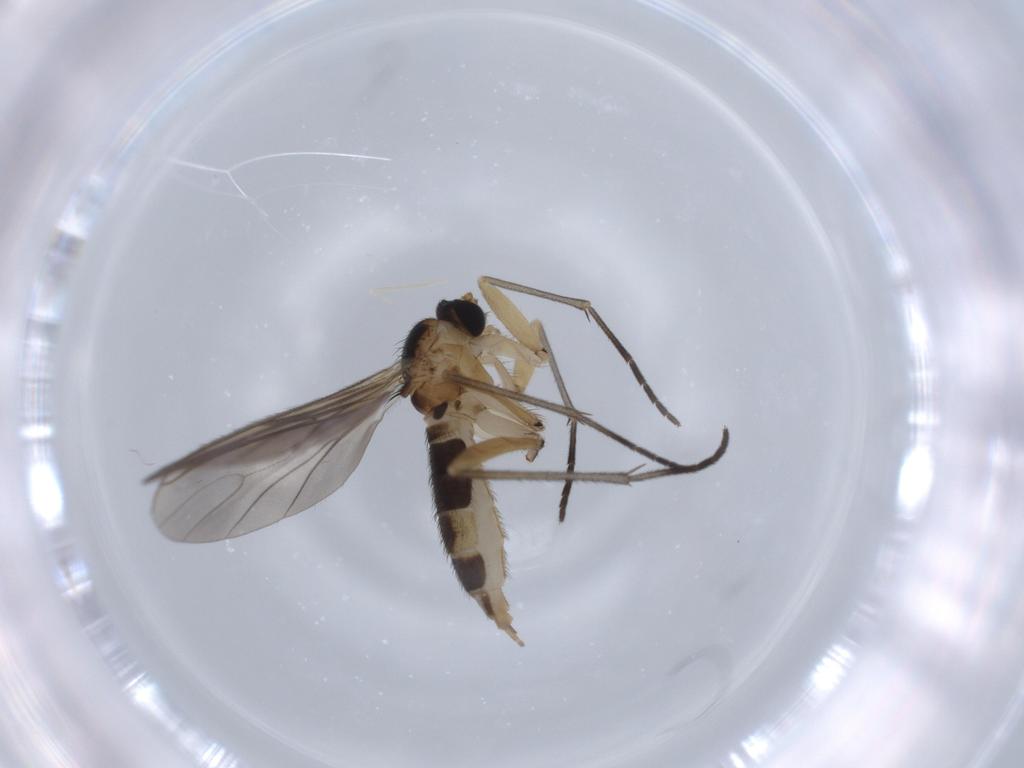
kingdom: Animalia
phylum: Arthropoda
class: Insecta
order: Diptera
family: Sciaridae
